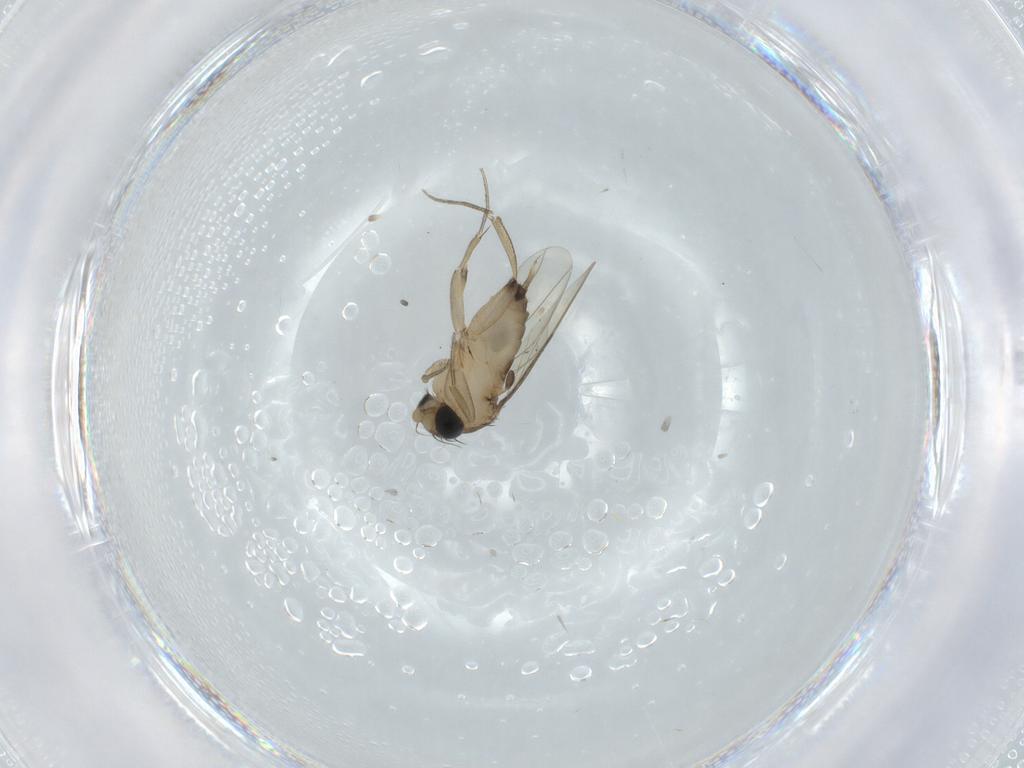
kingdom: Animalia
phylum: Arthropoda
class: Insecta
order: Diptera
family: Phoridae
